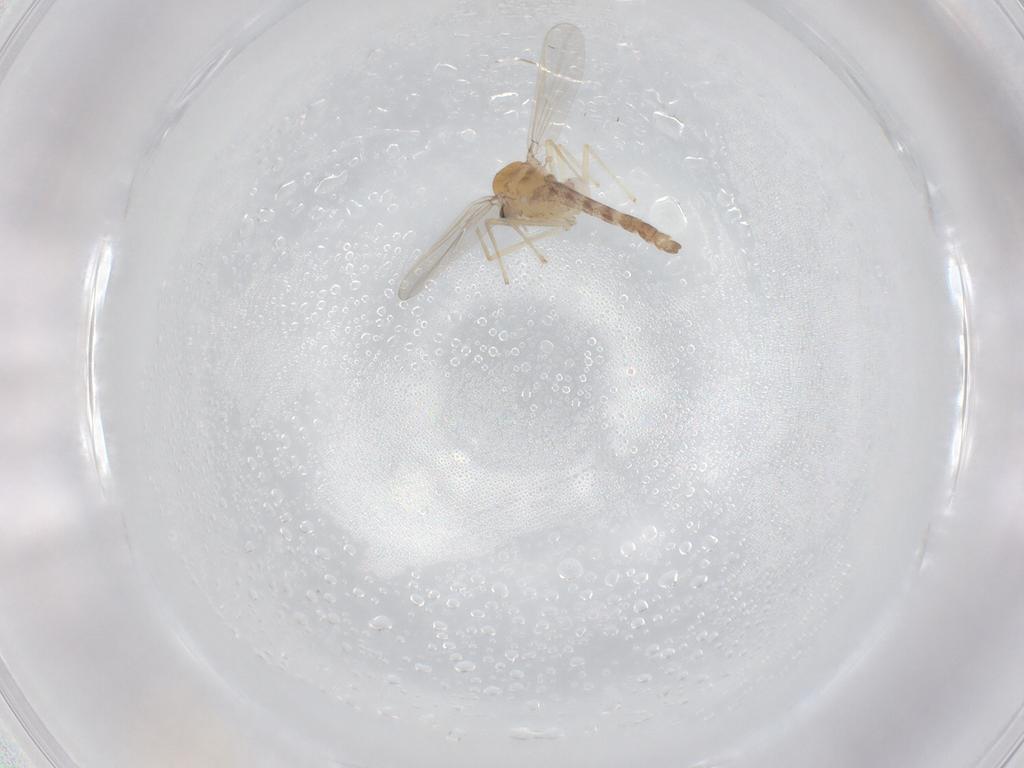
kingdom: Animalia
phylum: Arthropoda
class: Insecta
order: Diptera
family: Chironomidae
